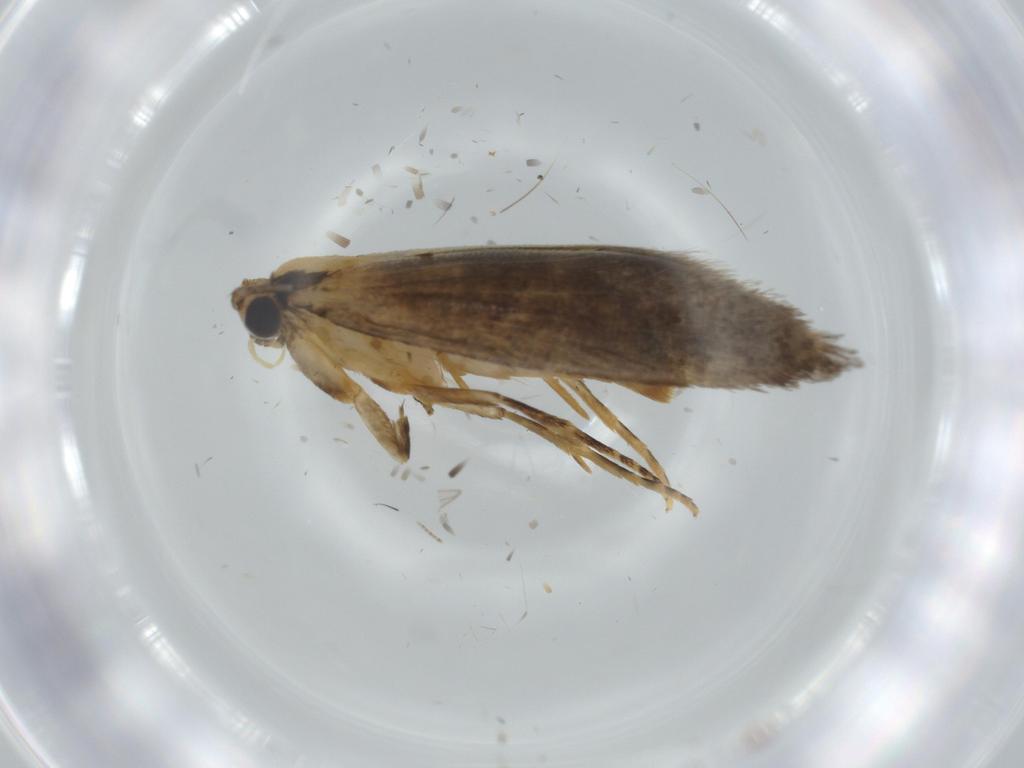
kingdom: Animalia
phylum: Arthropoda
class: Insecta
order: Lepidoptera
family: Tineidae
